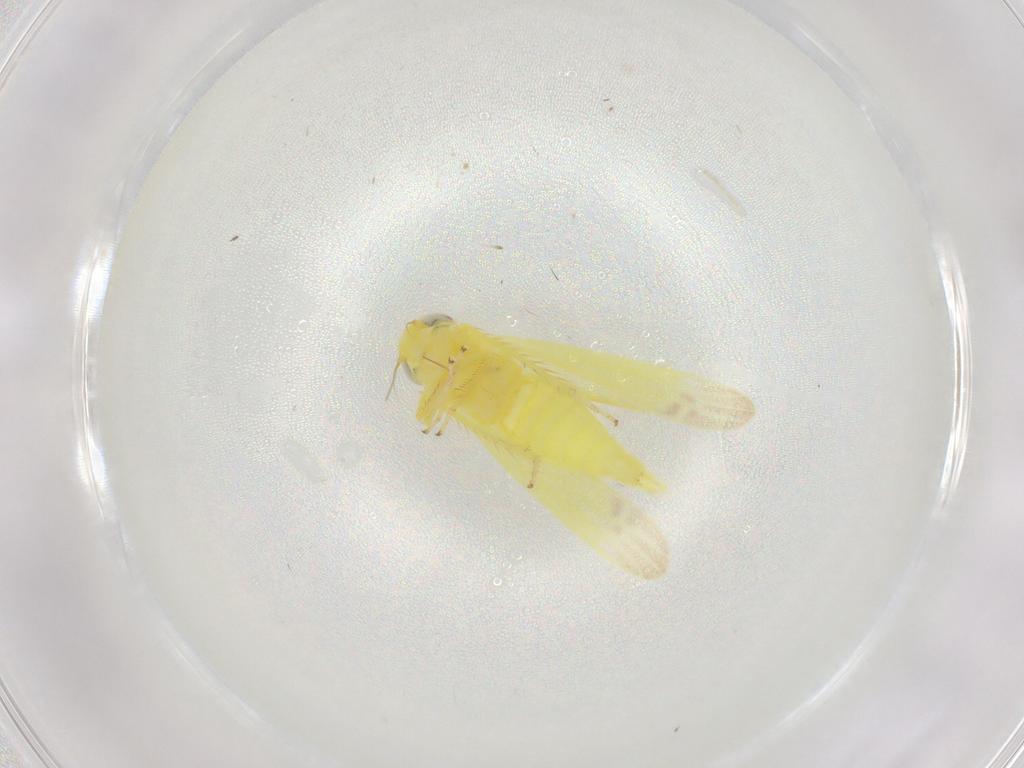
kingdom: Animalia
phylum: Arthropoda
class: Insecta
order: Hemiptera
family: Cicadellidae
